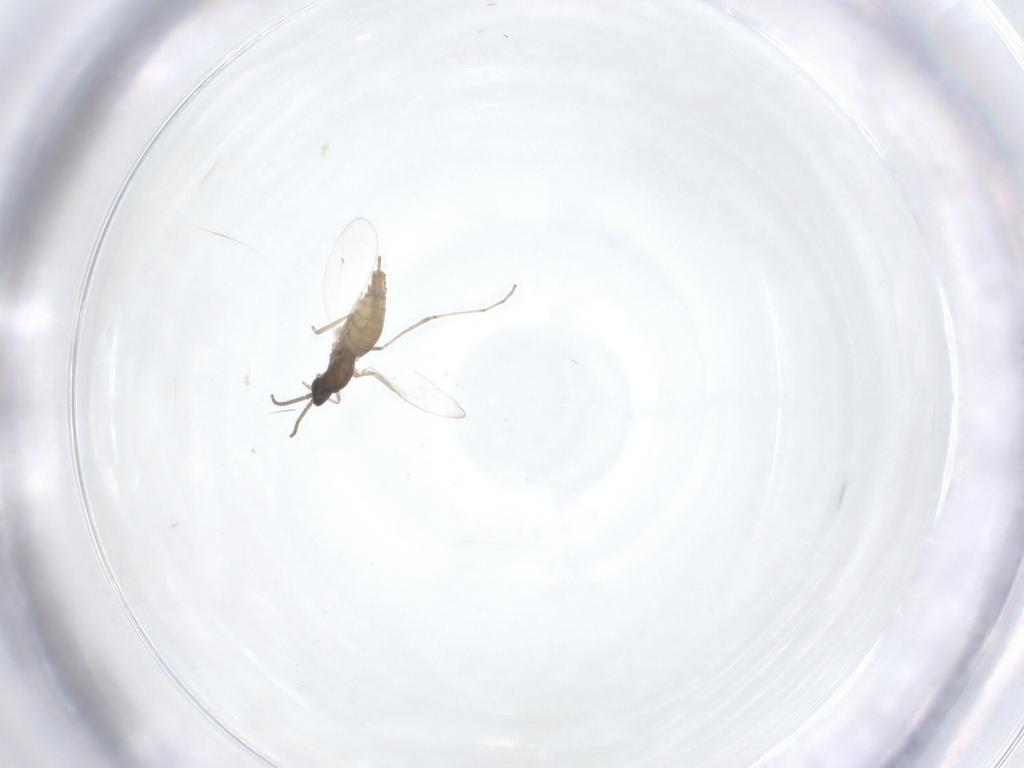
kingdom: Animalia
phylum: Arthropoda
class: Insecta
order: Diptera
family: Cecidomyiidae
